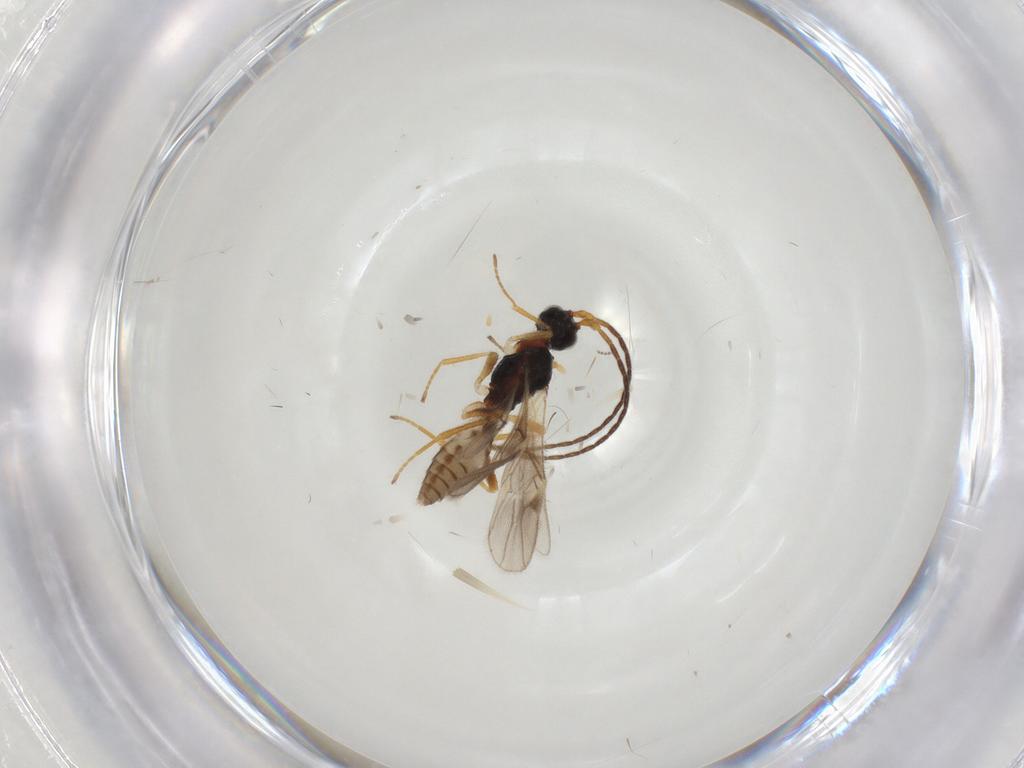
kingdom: Animalia
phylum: Arthropoda
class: Insecta
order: Hymenoptera
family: Braconidae
